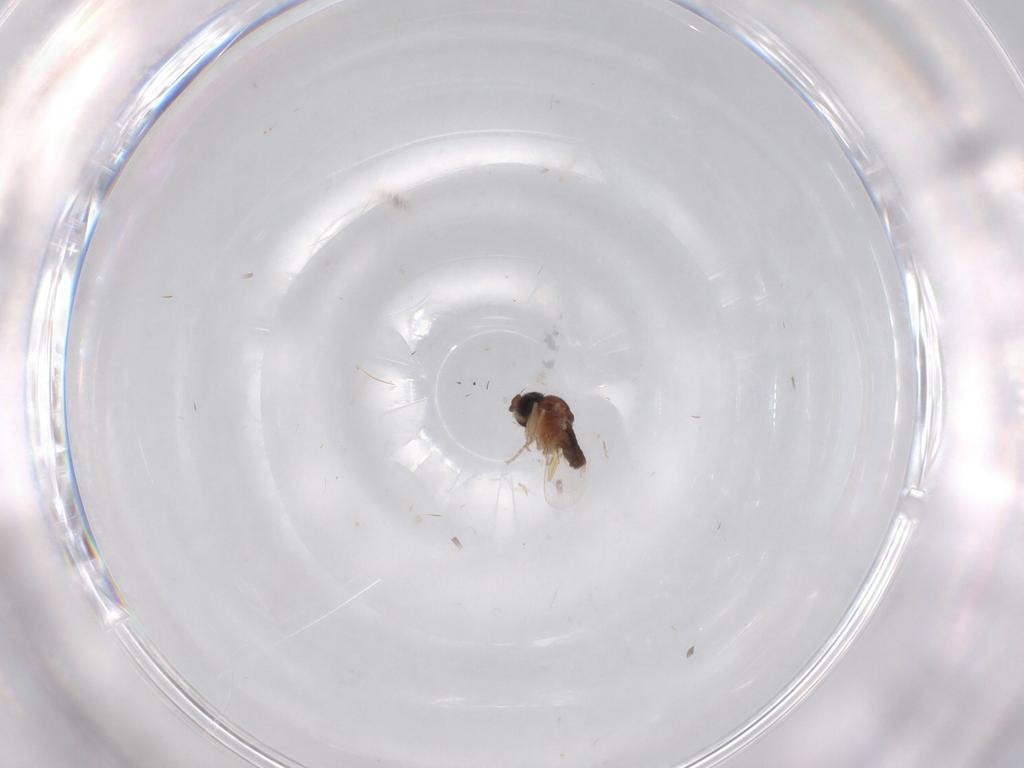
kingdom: Animalia
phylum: Arthropoda
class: Insecta
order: Diptera
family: Phoridae
